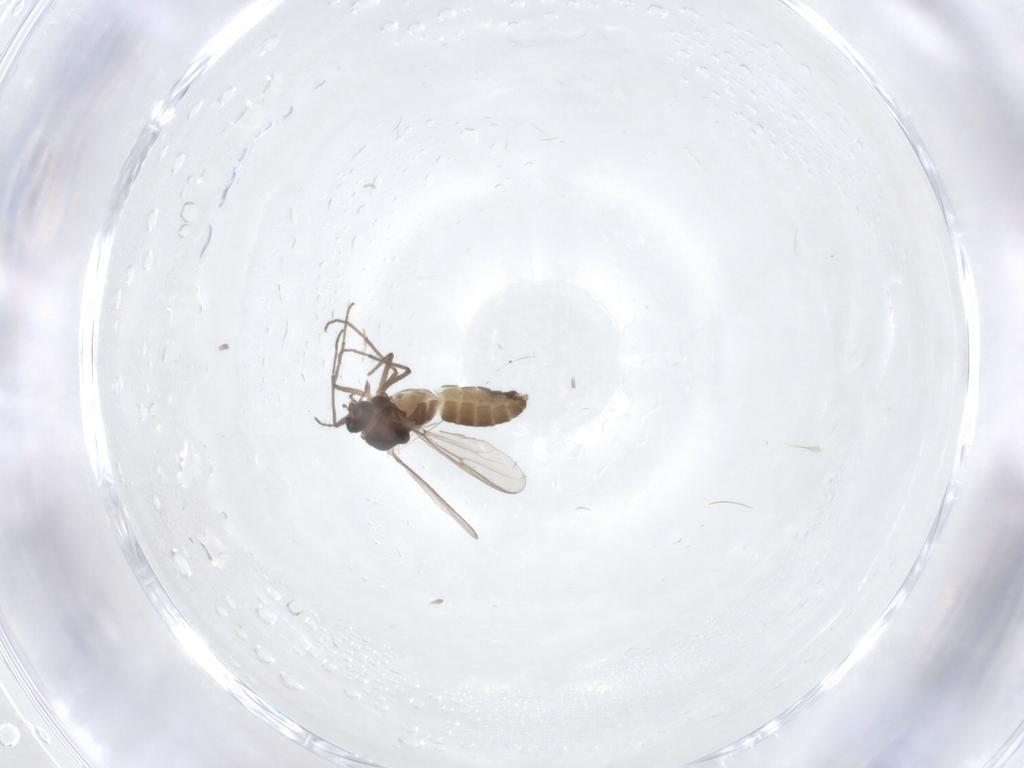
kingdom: Animalia
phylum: Arthropoda
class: Insecta
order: Diptera
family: Chironomidae
